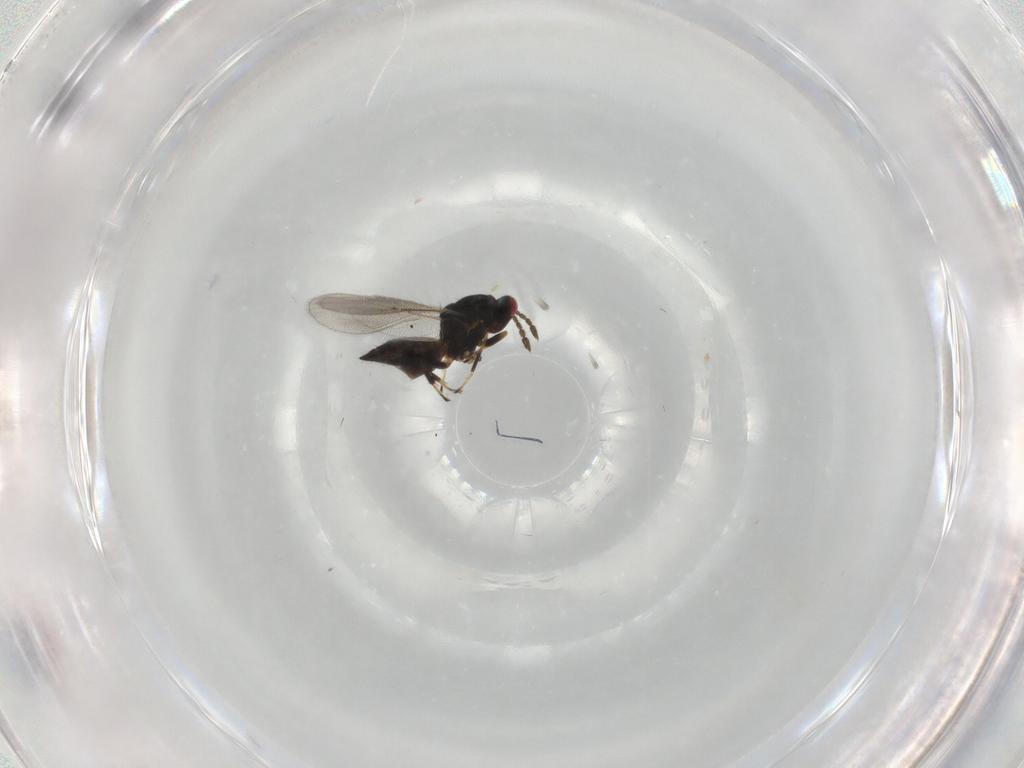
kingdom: Animalia
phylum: Arthropoda
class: Insecta
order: Hymenoptera
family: Eulophidae
